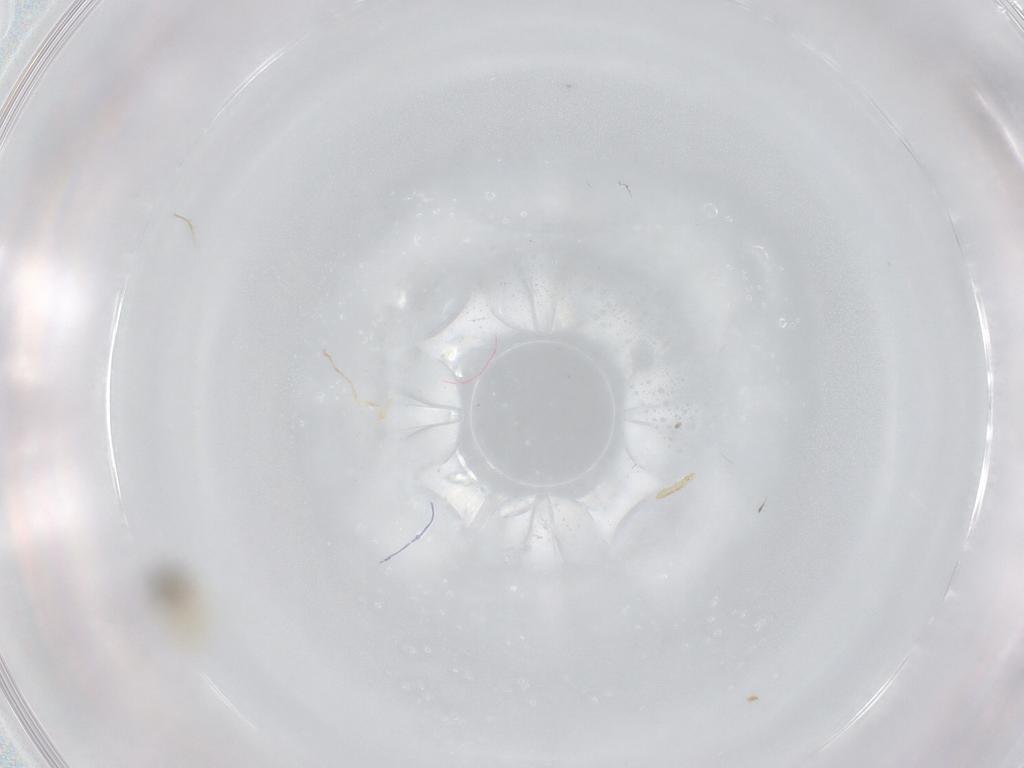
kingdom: Animalia
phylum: Arthropoda
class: Insecta
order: Diptera
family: Cecidomyiidae
